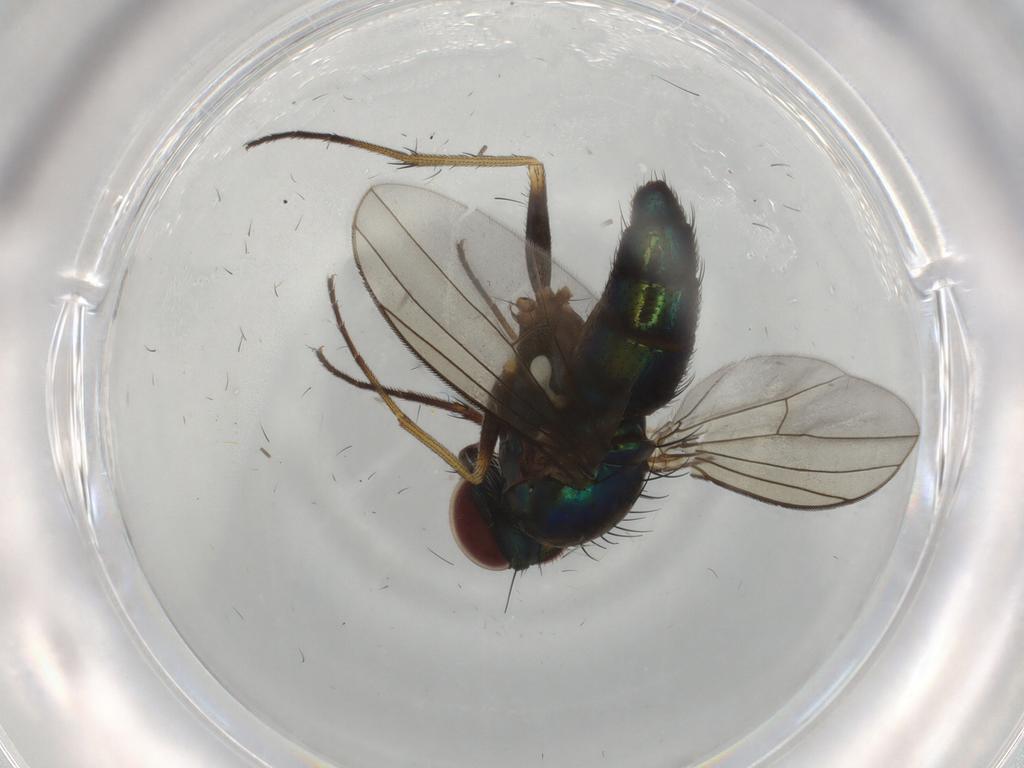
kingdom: Animalia
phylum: Arthropoda
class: Insecta
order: Diptera
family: Dolichopodidae
